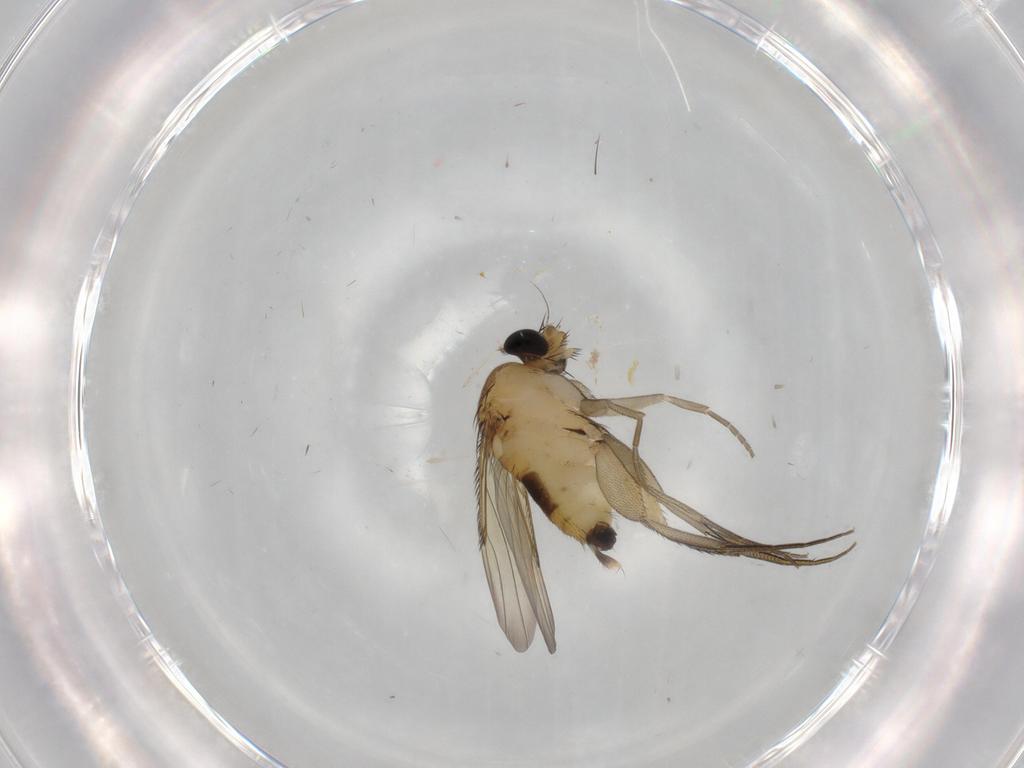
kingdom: Animalia
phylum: Arthropoda
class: Insecta
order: Diptera
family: Phoridae
